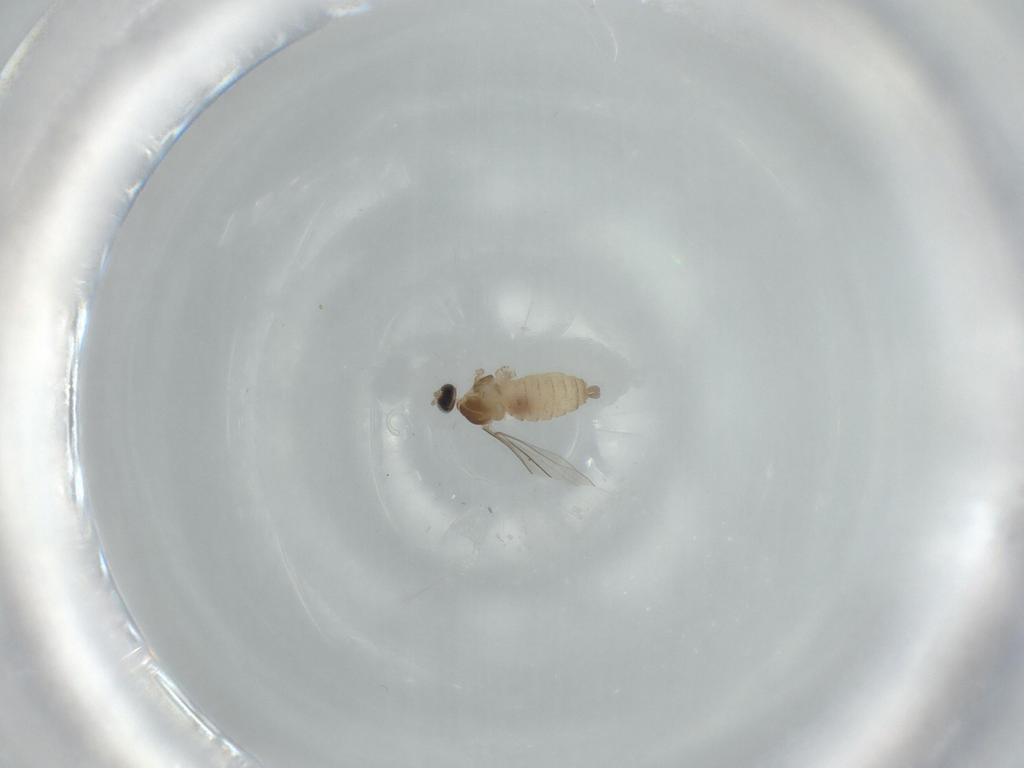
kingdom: Animalia
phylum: Arthropoda
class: Insecta
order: Diptera
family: Cecidomyiidae
